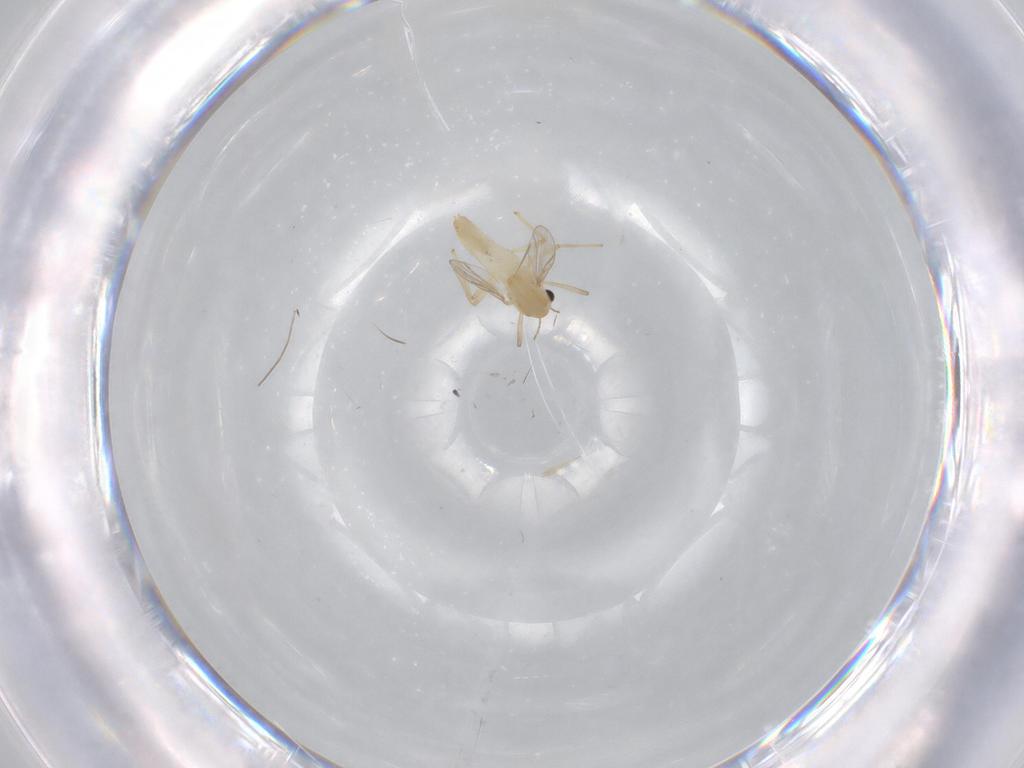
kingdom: Animalia
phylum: Arthropoda
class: Insecta
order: Diptera
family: Chironomidae
